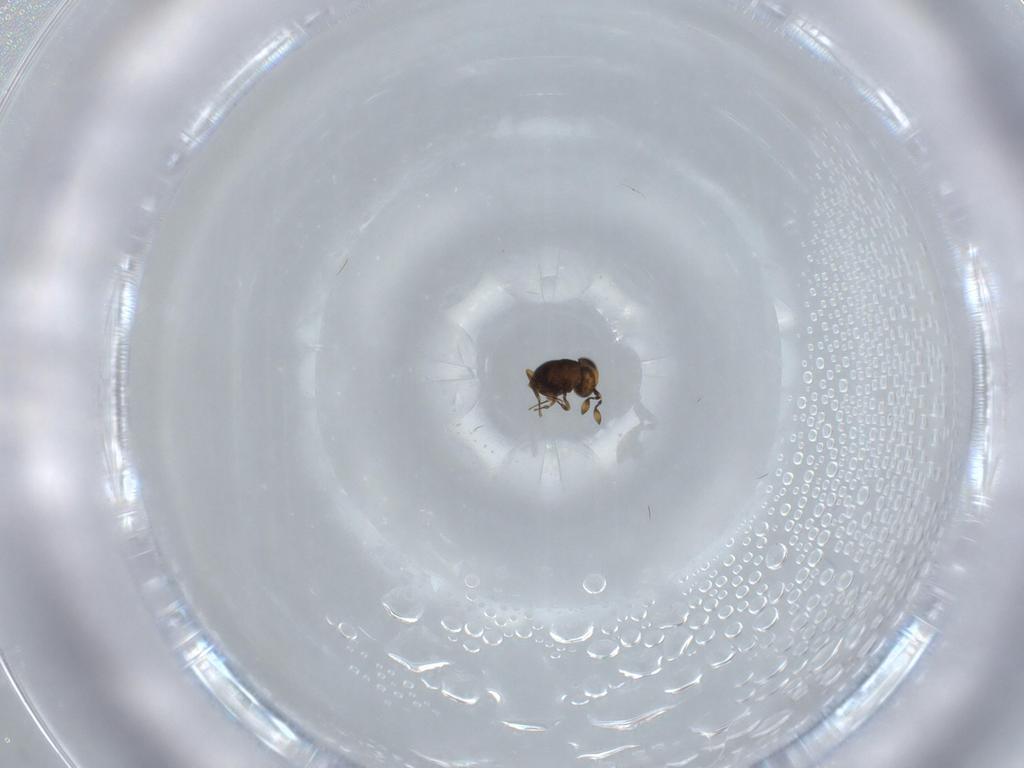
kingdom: Animalia
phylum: Arthropoda
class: Insecta
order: Hymenoptera
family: Scelionidae
